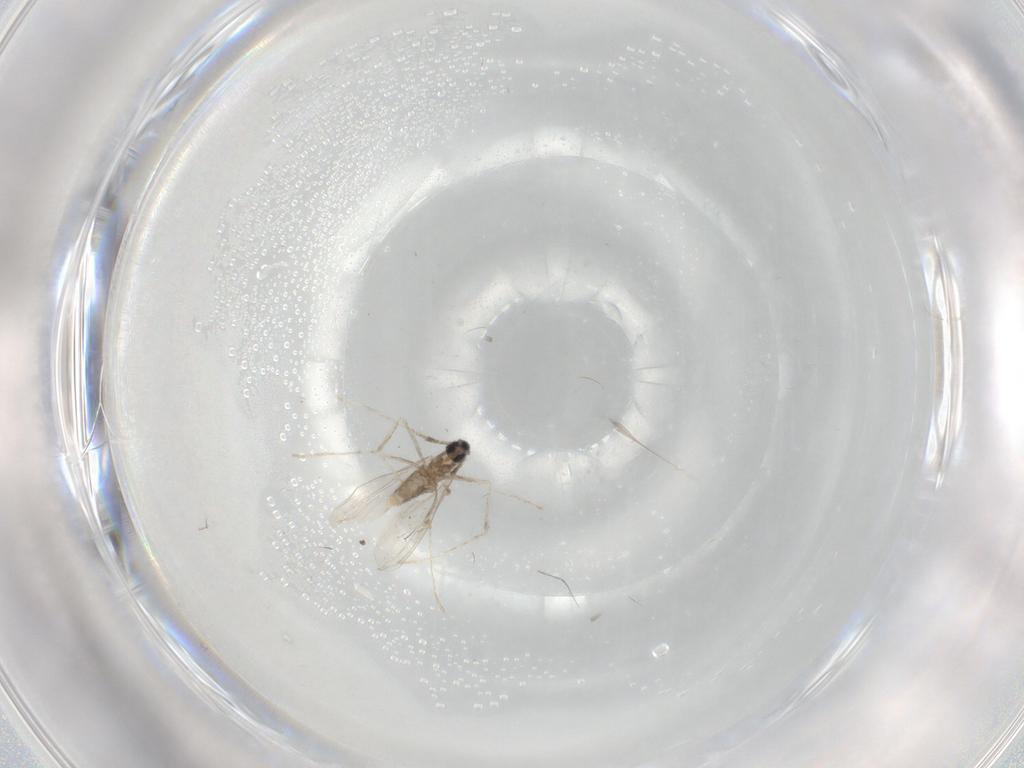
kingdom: Animalia
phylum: Arthropoda
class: Insecta
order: Diptera
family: Cecidomyiidae
